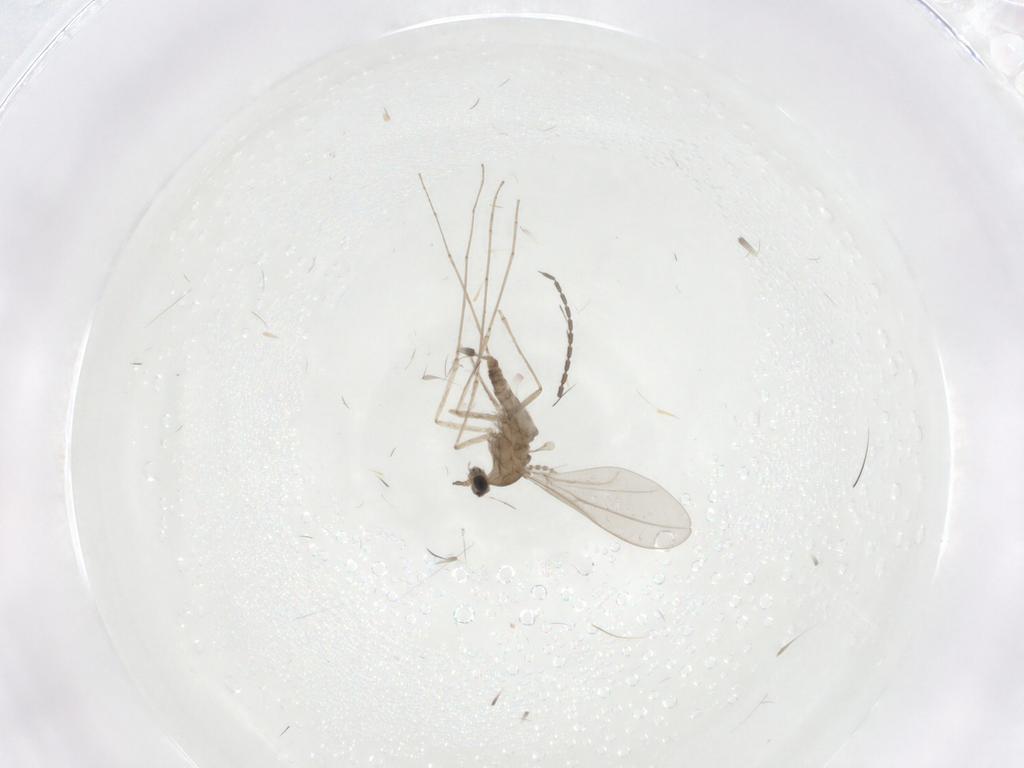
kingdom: Animalia
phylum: Arthropoda
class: Insecta
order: Diptera
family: Cecidomyiidae
